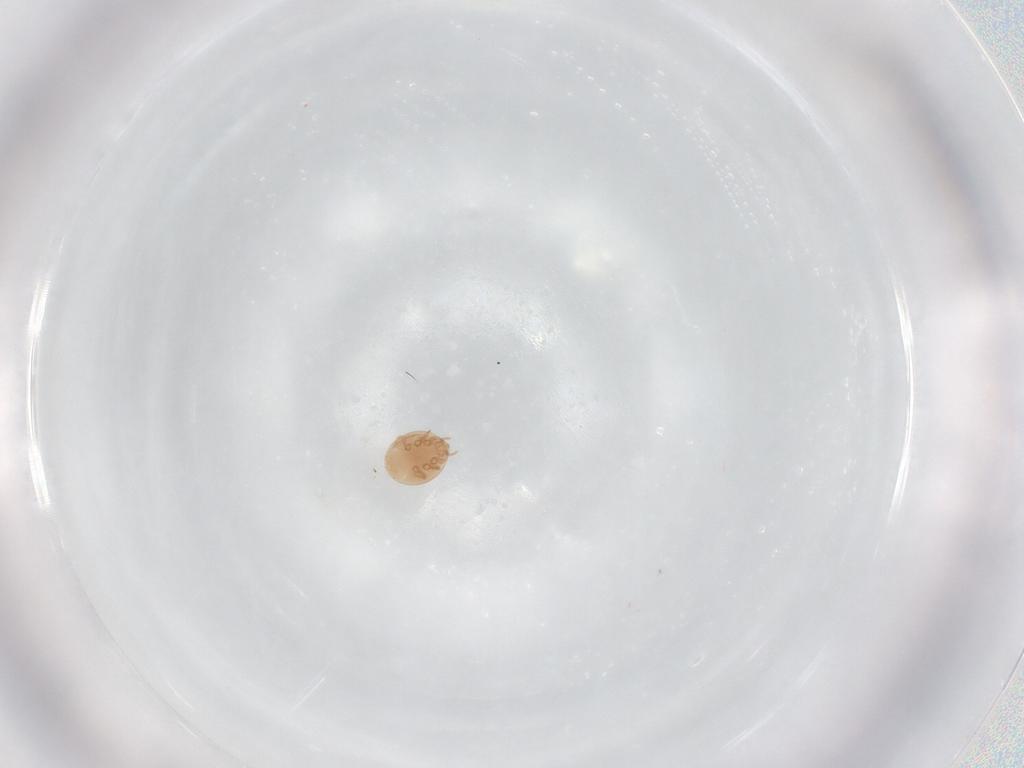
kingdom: Animalia
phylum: Arthropoda
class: Arachnida
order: Mesostigmata
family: Trematuridae
